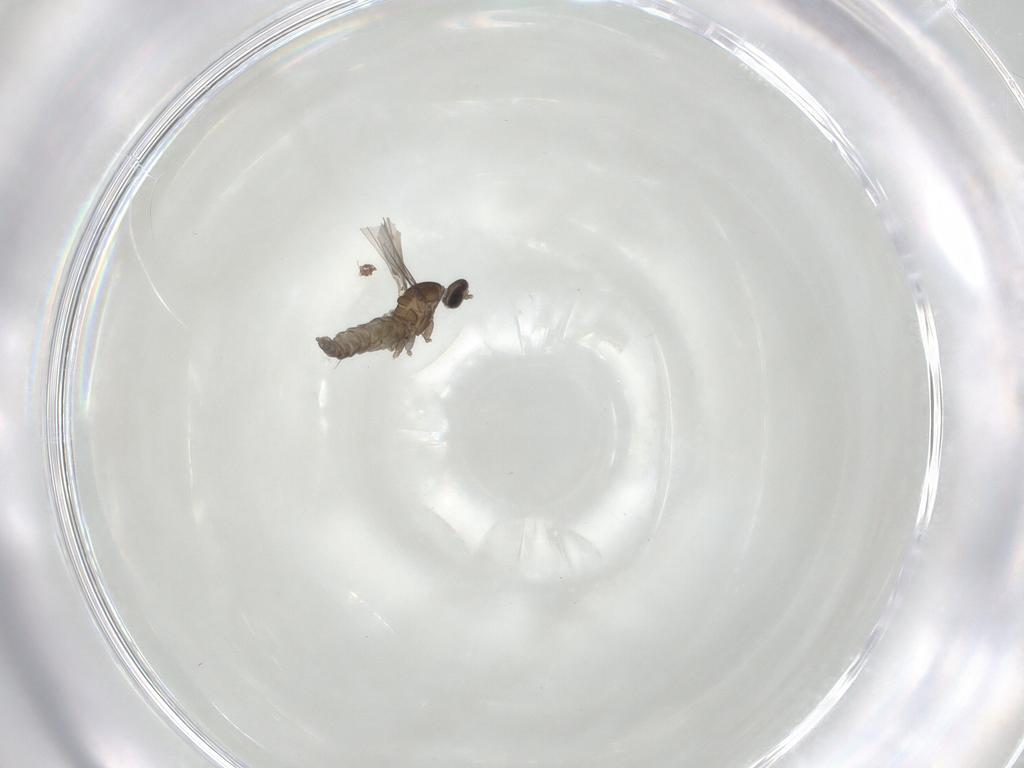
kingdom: Animalia
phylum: Arthropoda
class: Insecta
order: Diptera
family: Cecidomyiidae
